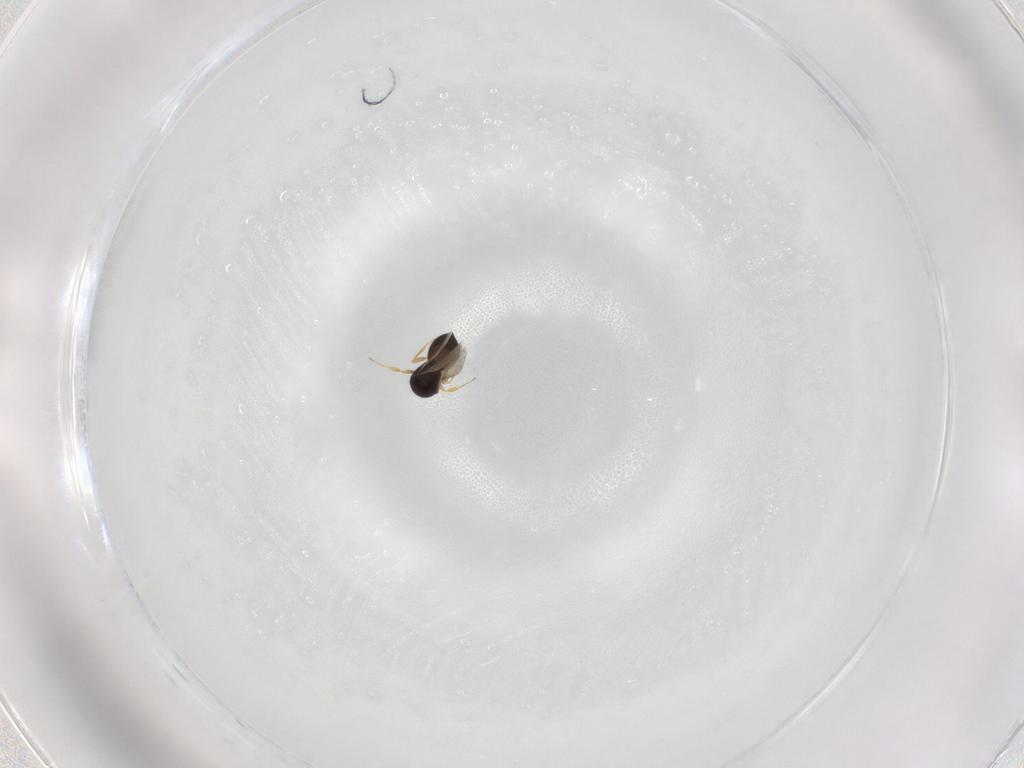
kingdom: Animalia
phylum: Arthropoda
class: Insecta
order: Hymenoptera
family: Scelionidae
